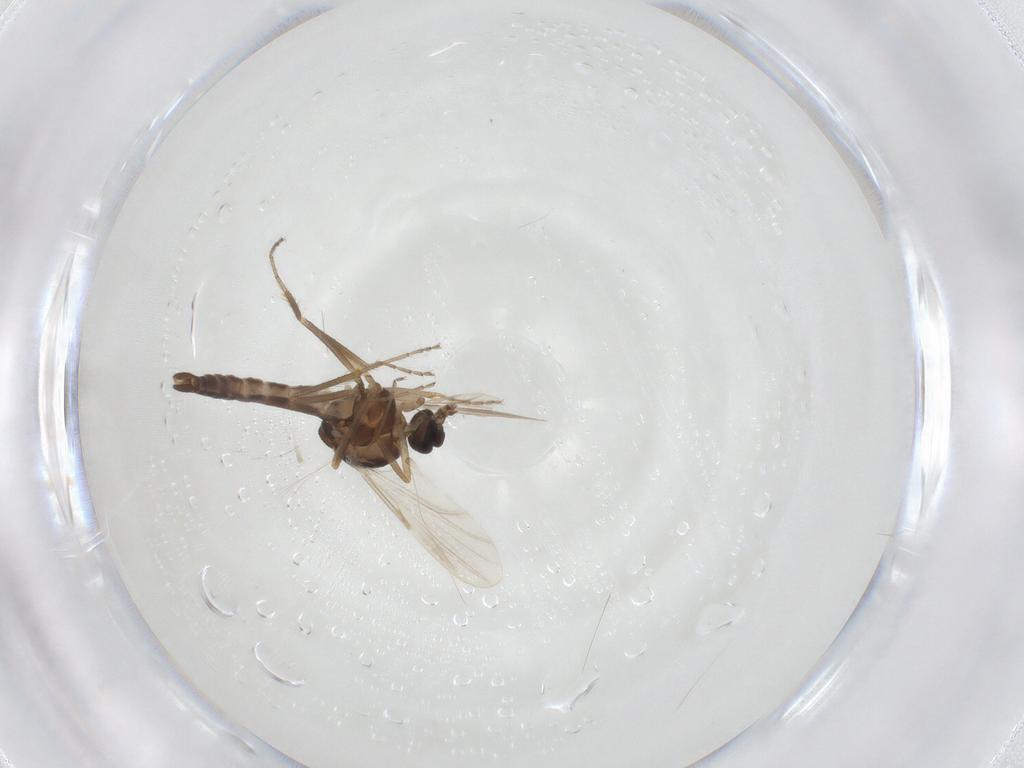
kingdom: Animalia
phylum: Arthropoda
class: Insecta
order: Diptera
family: Ceratopogonidae
